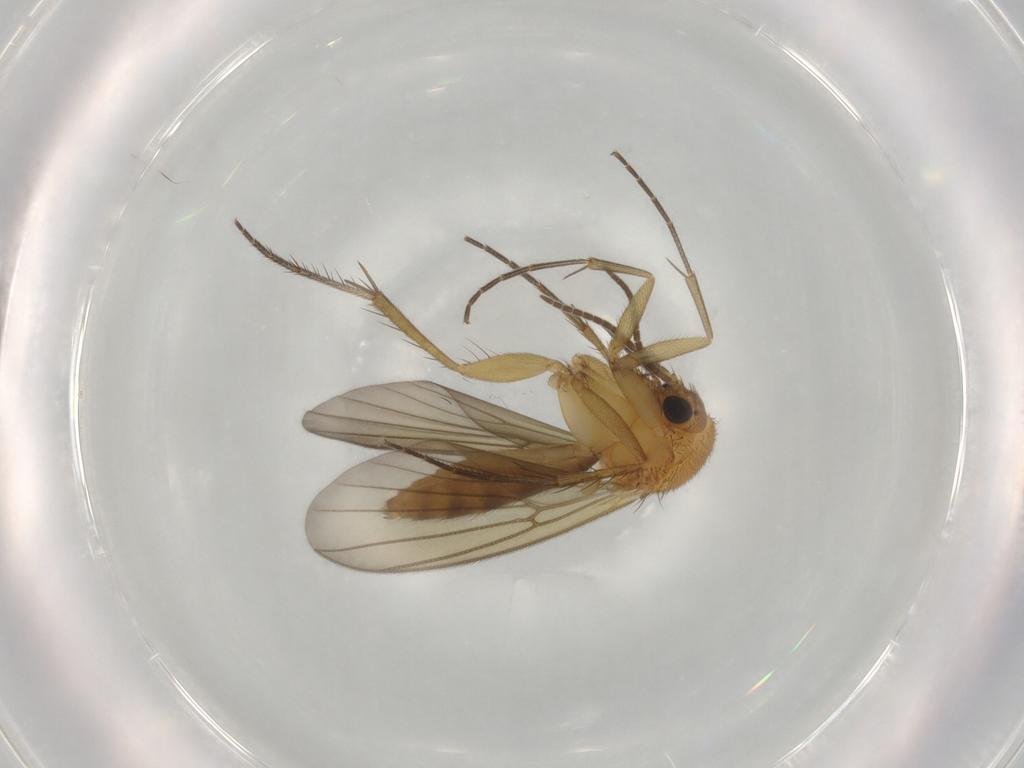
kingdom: Animalia
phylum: Arthropoda
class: Insecta
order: Diptera
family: Mycetophilidae
